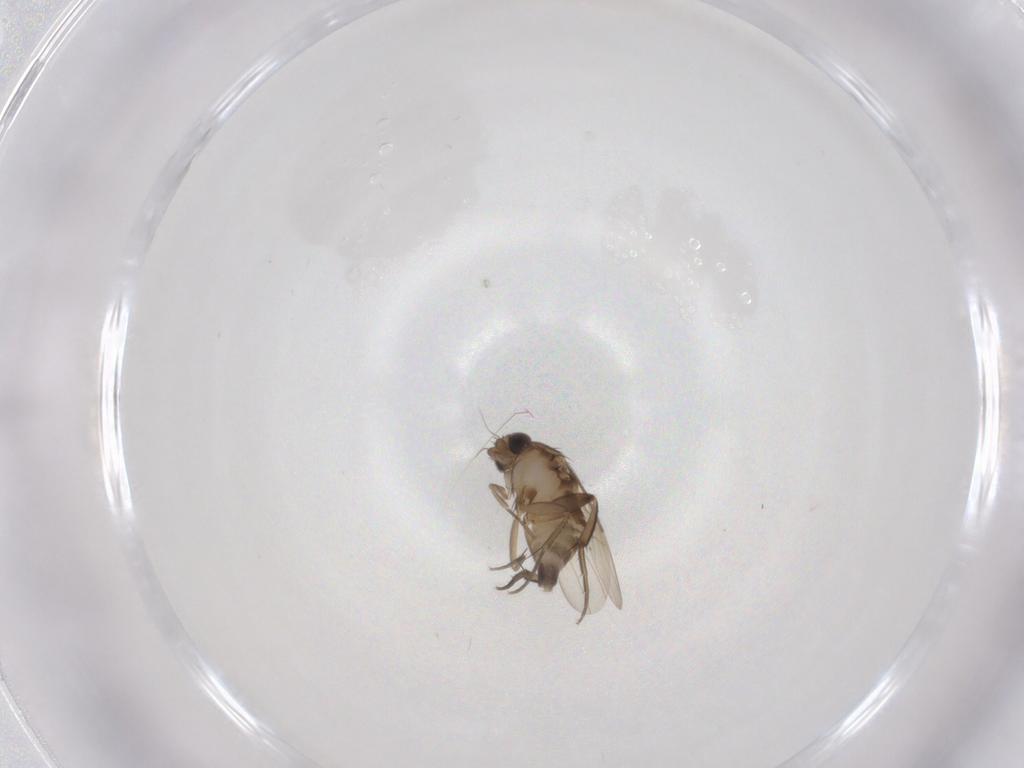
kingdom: Animalia
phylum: Arthropoda
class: Insecta
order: Diptera
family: Phoridae
